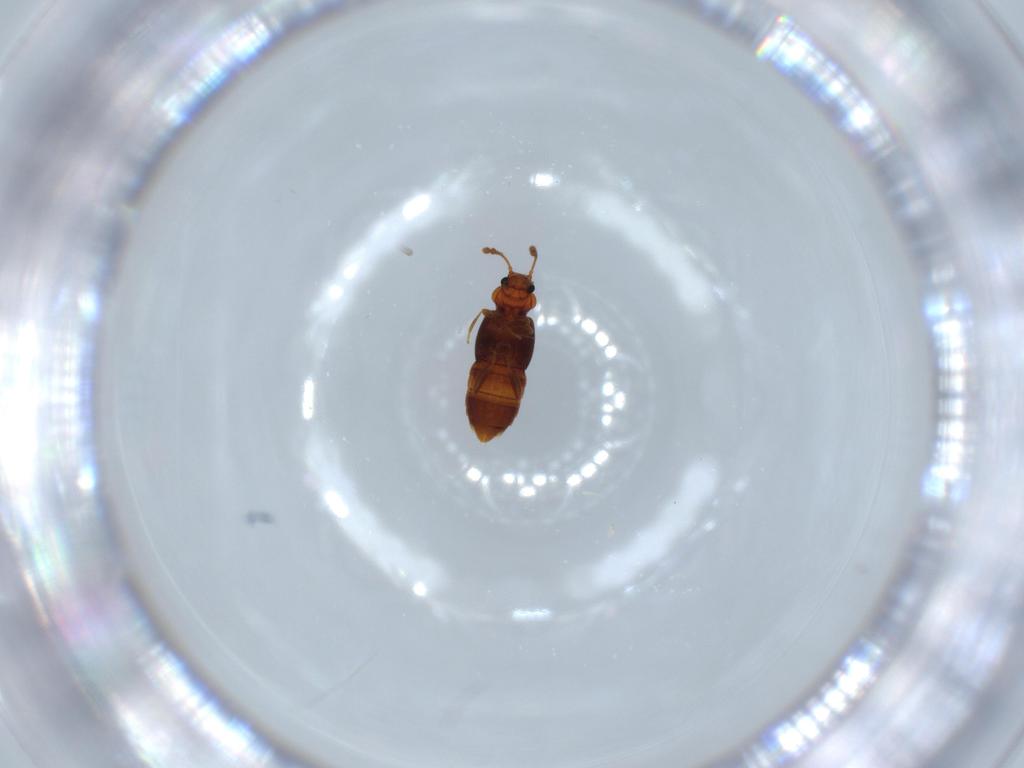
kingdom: Animalia
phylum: Arthropoda
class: Insecta
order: Coleoptera
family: Staphylinidae
